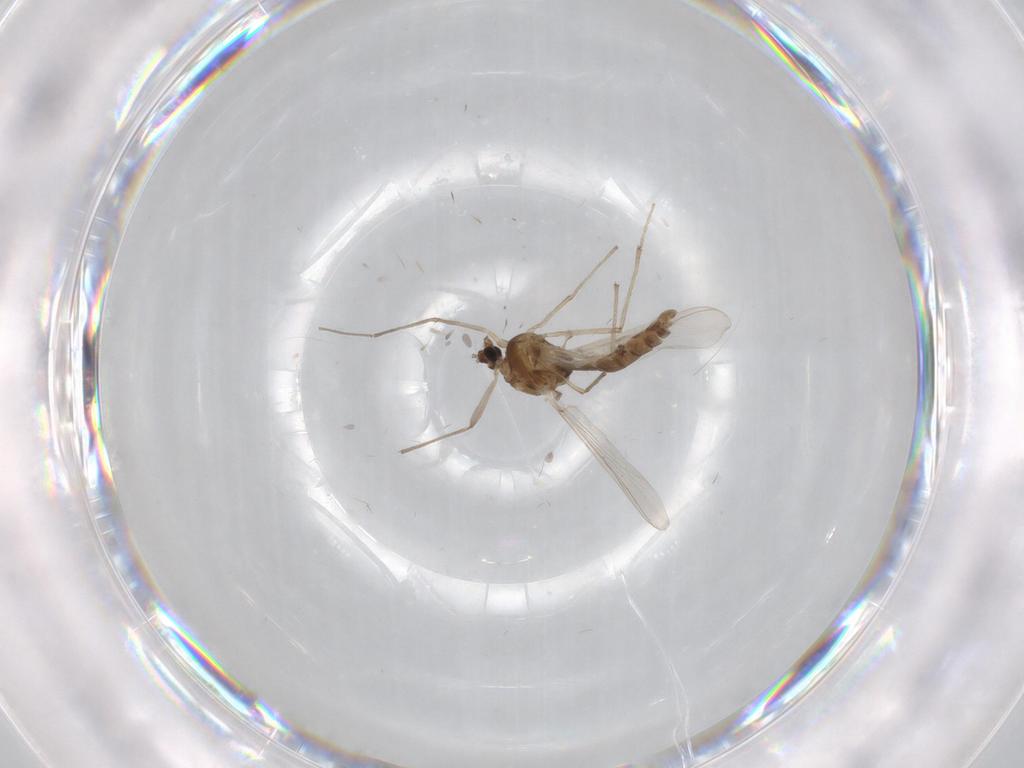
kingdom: Animalia
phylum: Arthropoda
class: Insecta
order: Diptera
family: Chironomidae
